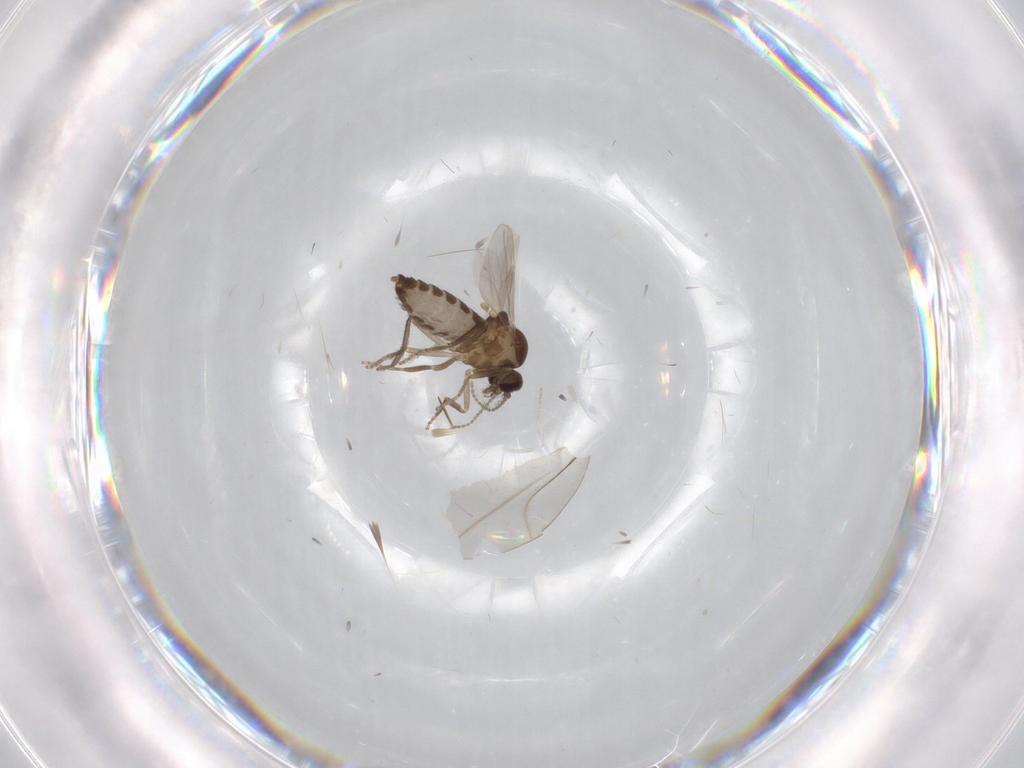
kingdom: Animalia
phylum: Arthropoda
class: Insecta
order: Diptera
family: Ceratopogonidae
